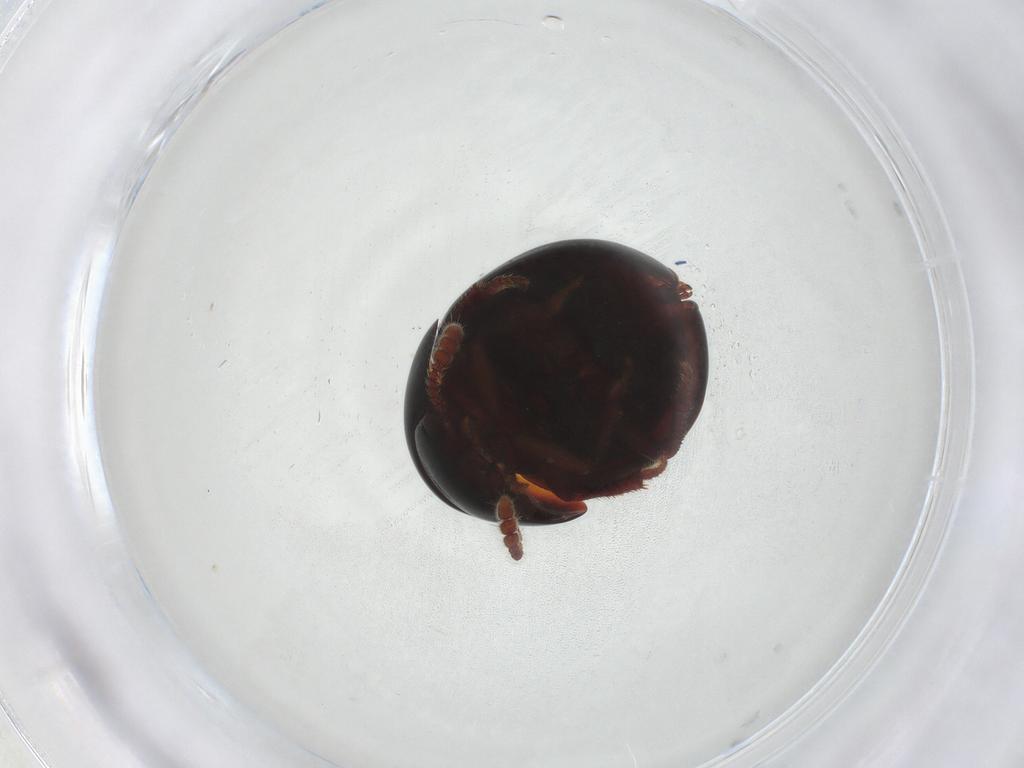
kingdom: Animalia
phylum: Arthropoda
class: Insecta
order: Coleoptera
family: Leiodidae
